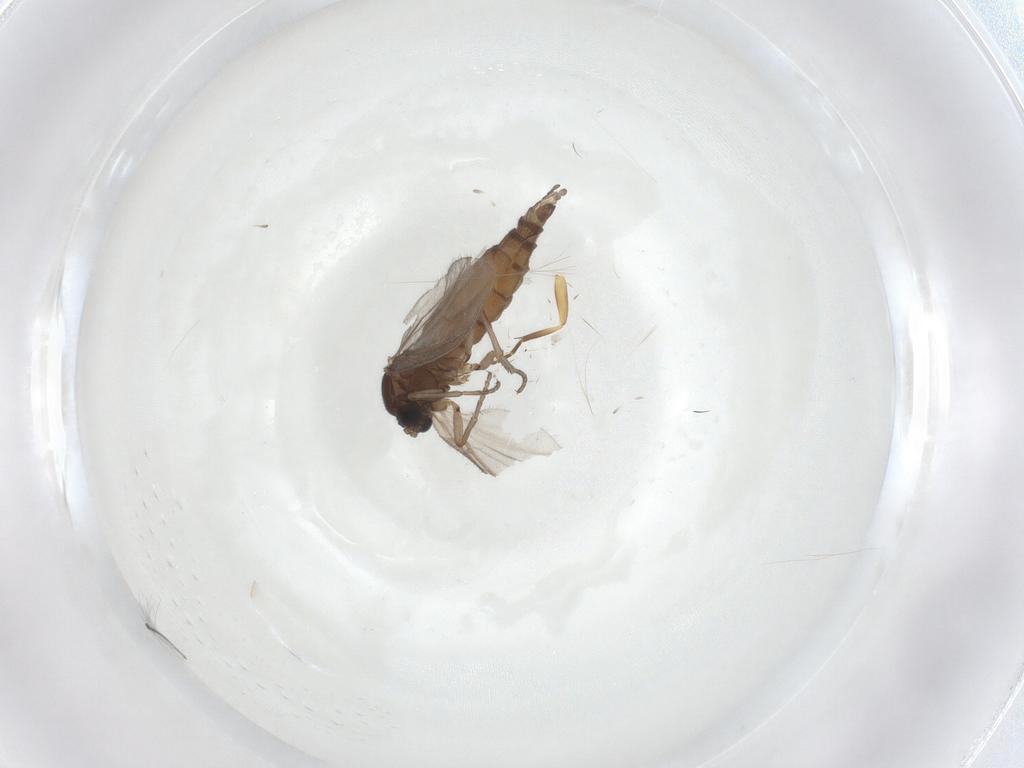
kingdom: Animalia
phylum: Arthropoda
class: Insecta
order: Diptera
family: Sciaridae
